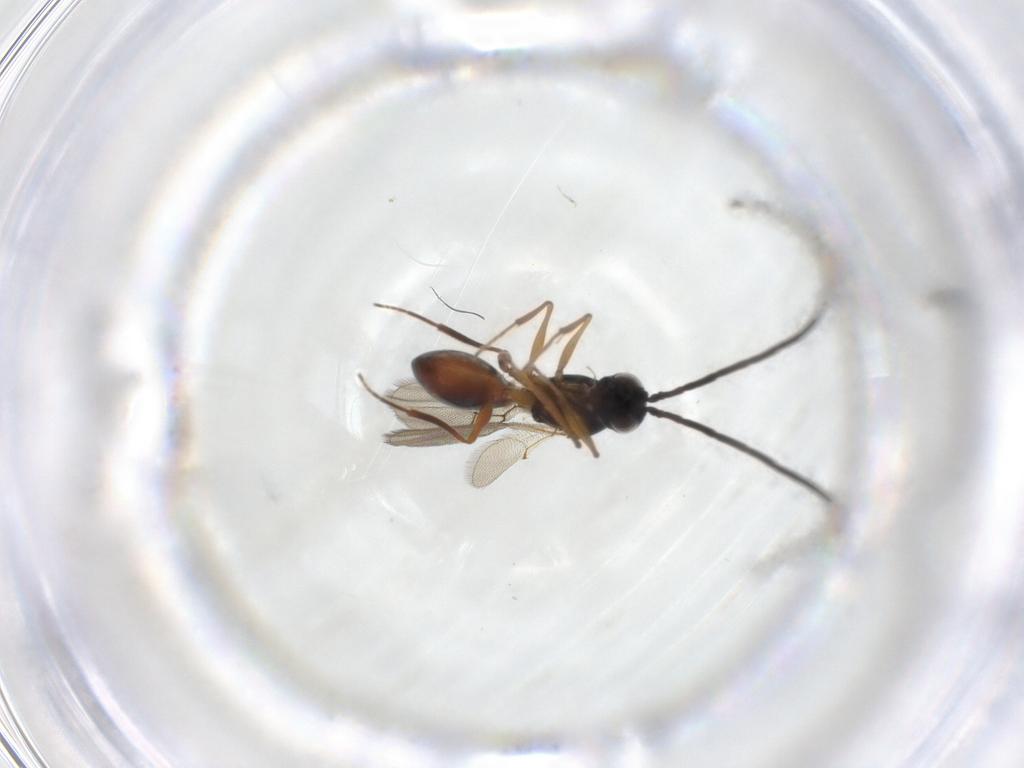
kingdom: Animalia
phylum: Arthropoda
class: Insecta
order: Hymenoptera
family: Figitidae
